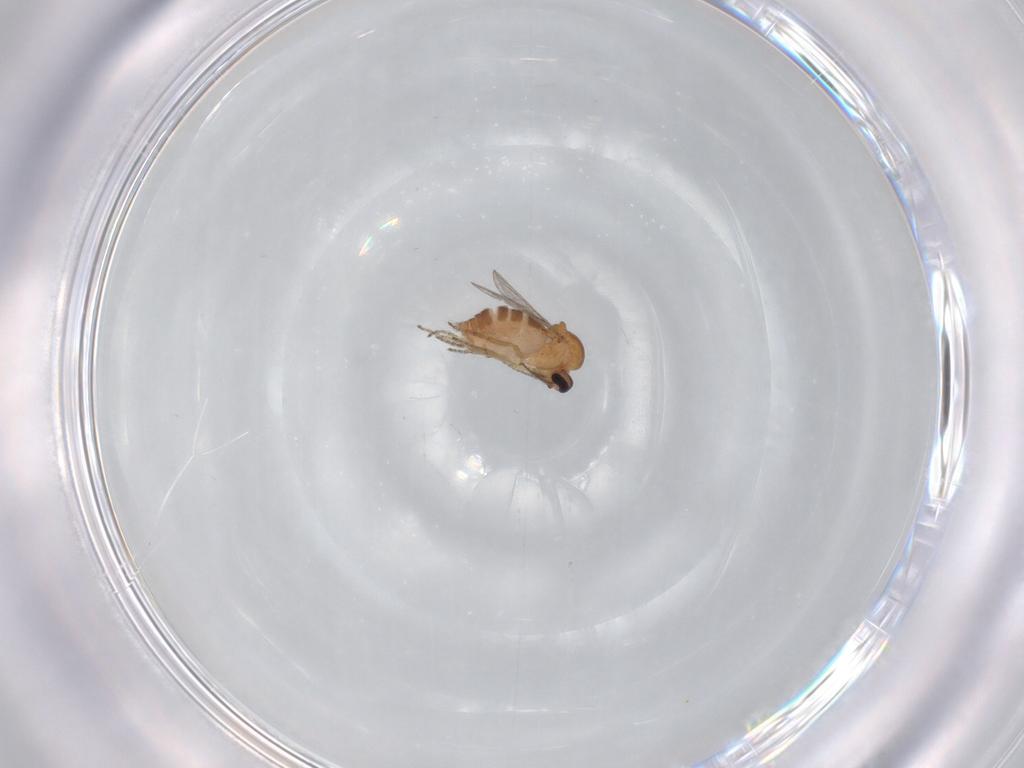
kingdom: Animalia
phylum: Arthropoda
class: Insecta
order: Diptera
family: Ceratopogonidae
